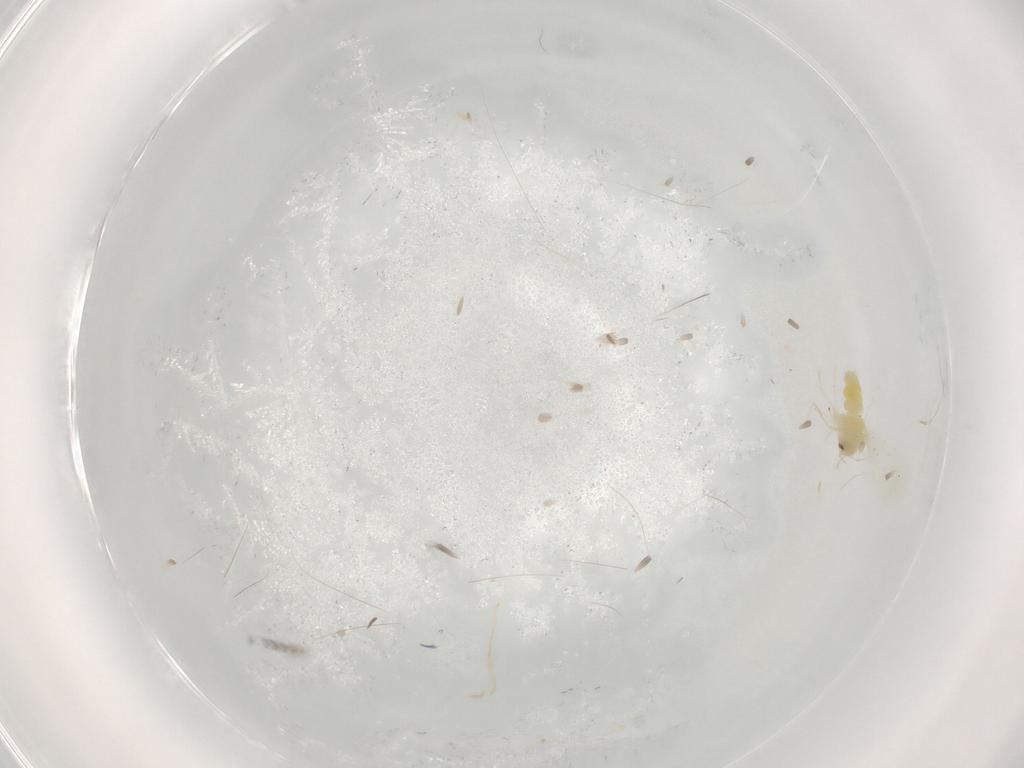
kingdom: Animalia
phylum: Arthropoda
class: Insecta
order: Hemiptera
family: Aleyrodidae
